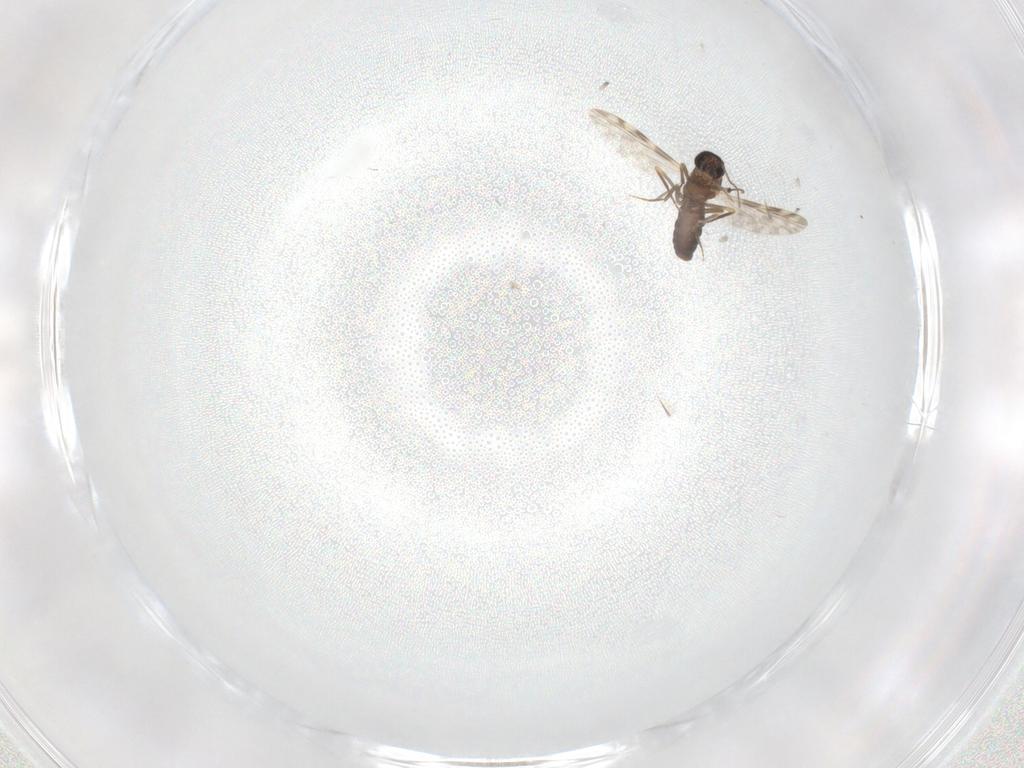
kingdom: Animalia
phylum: Arthropoda
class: Insecta
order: Diptera
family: Ceratopogonidae
